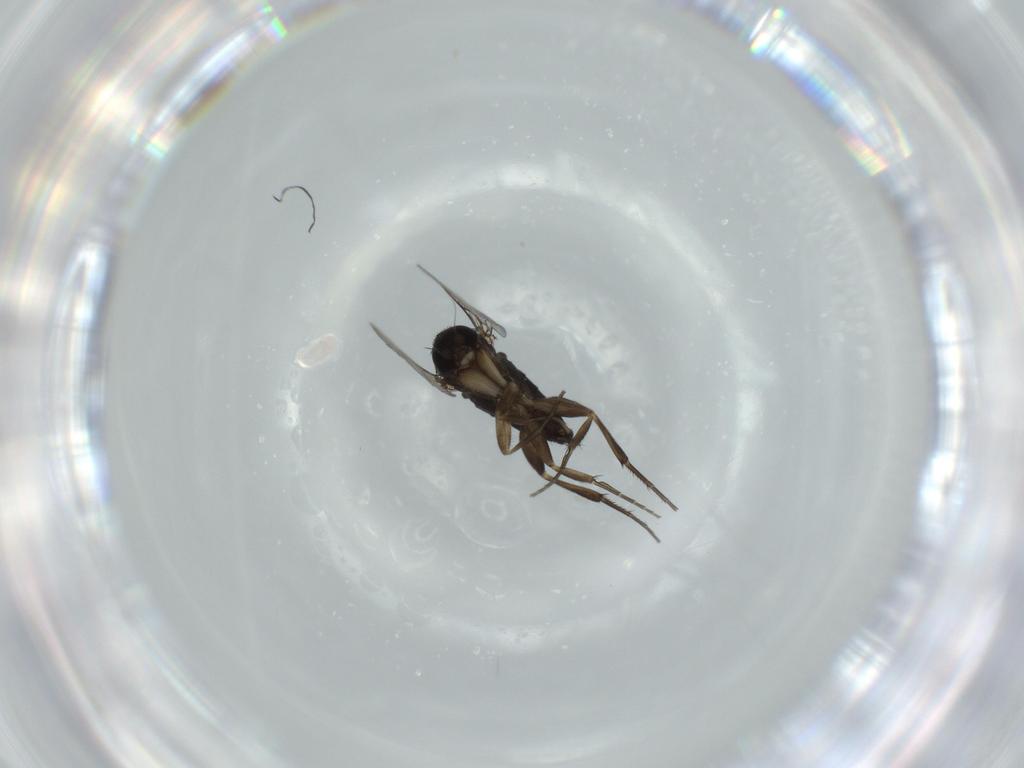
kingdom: Animalia
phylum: Arthropoda
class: Insecta
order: Diptera
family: Phoridae
